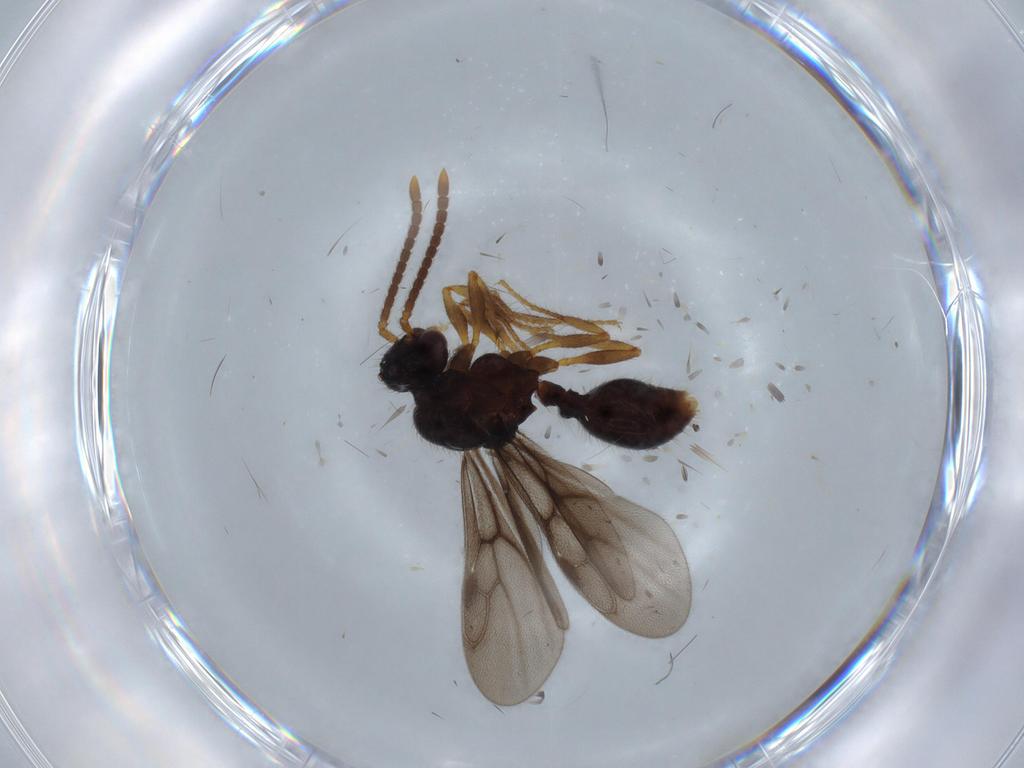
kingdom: Animalia
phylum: Arthropoda
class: Insecta
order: Hymenoptera
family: Formicidae
